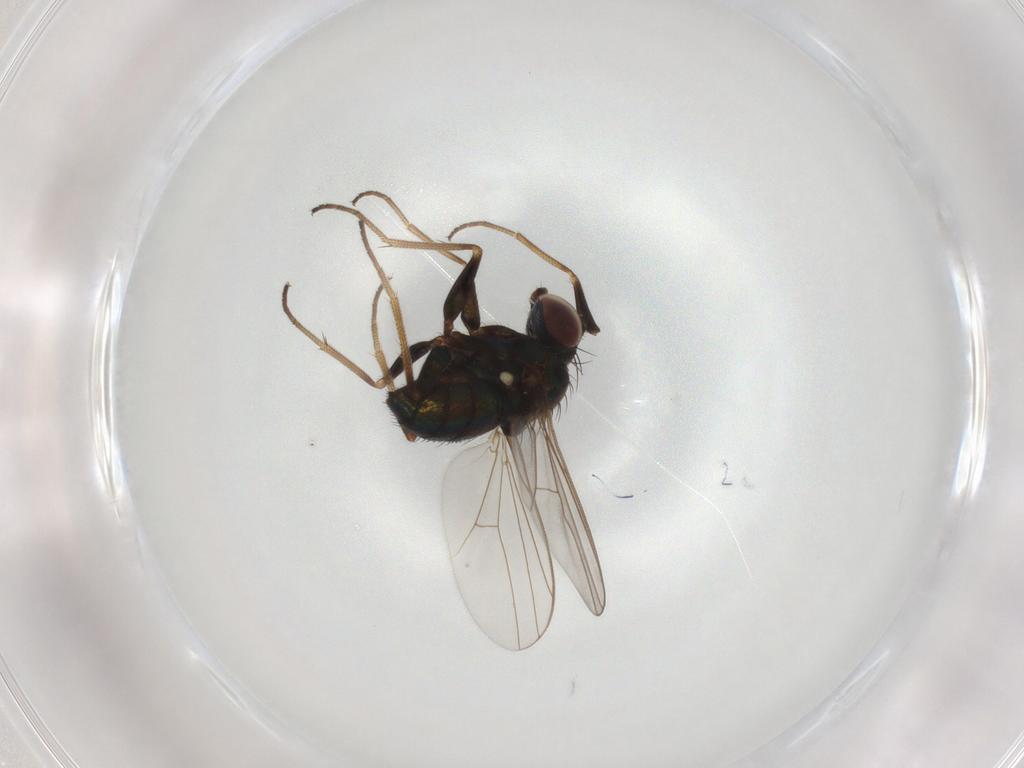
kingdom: Animalia
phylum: Arthropoda
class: Insecta
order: Diptera
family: Dolichopodidae
